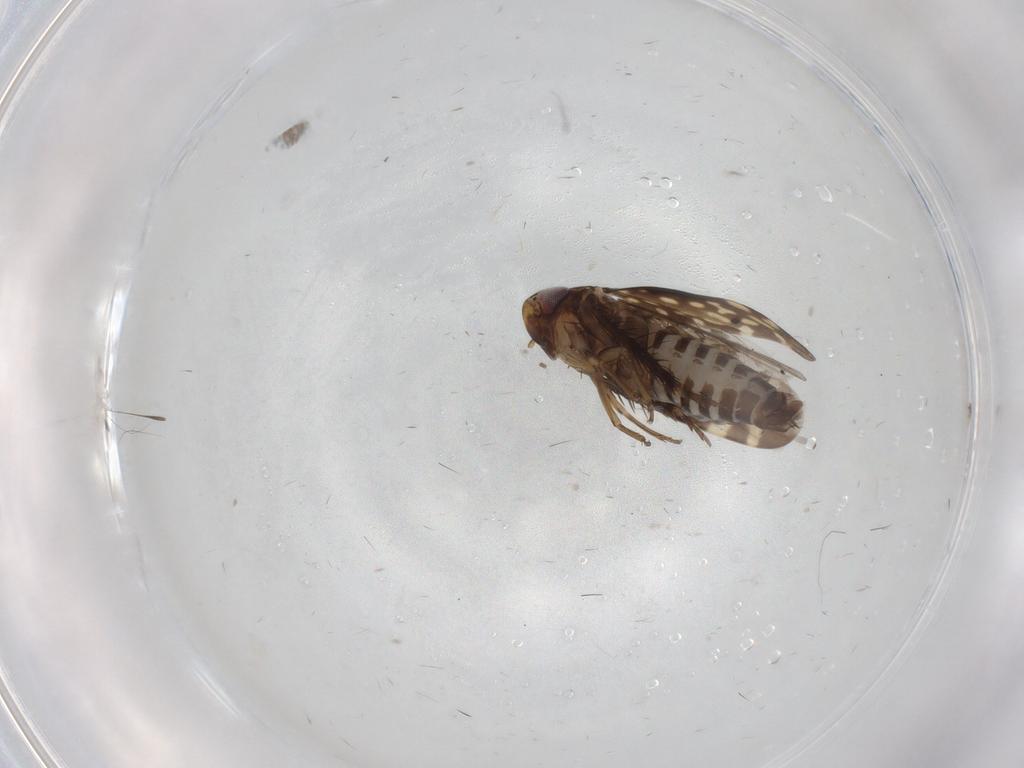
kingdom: Animalia
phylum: Arthropoda
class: Insecta
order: Hemiptera
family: Cicadellidae
